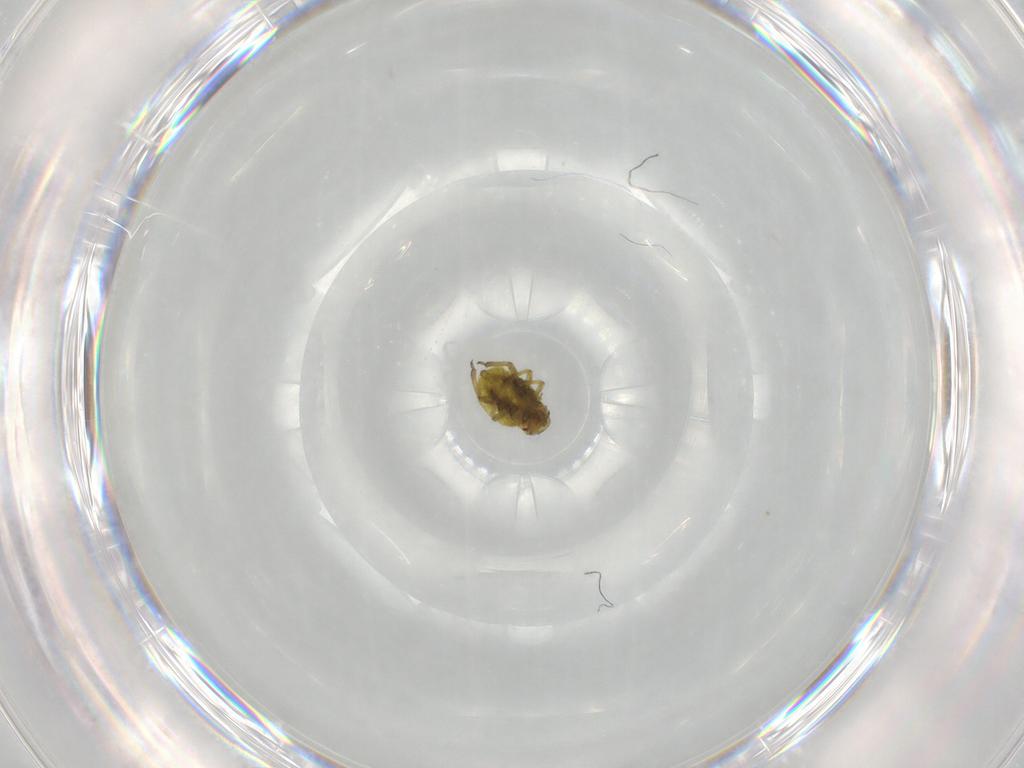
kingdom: Animalia
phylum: Arthropoda
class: Insecta
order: Hemiptera
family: Aphididae
